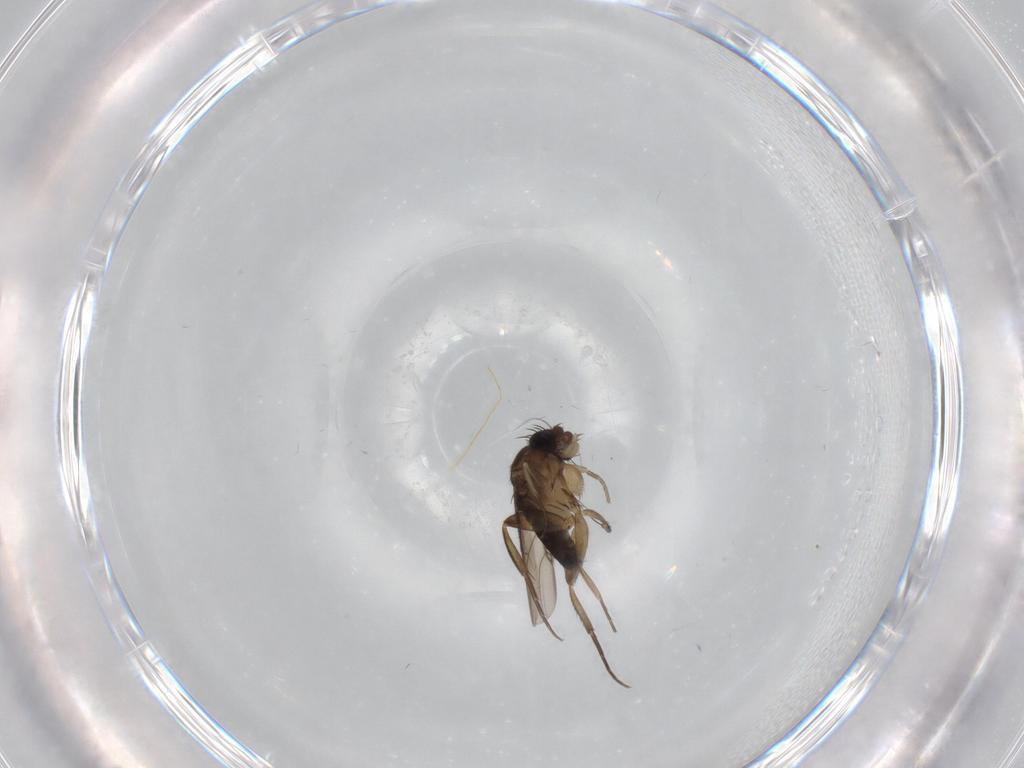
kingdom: Animalia
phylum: Arthropoda
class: Insecta
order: Diptera
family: Phoridae
